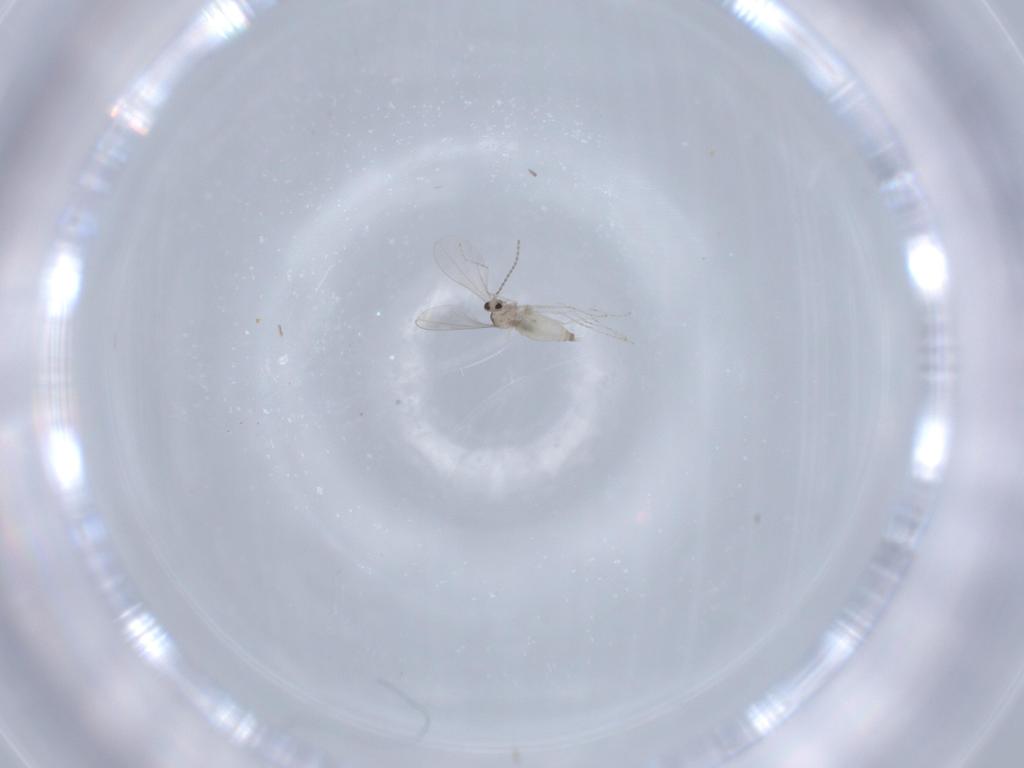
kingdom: Animalia
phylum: Arthropoda
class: Insecta
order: Diptera
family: Cecidomyiidae
